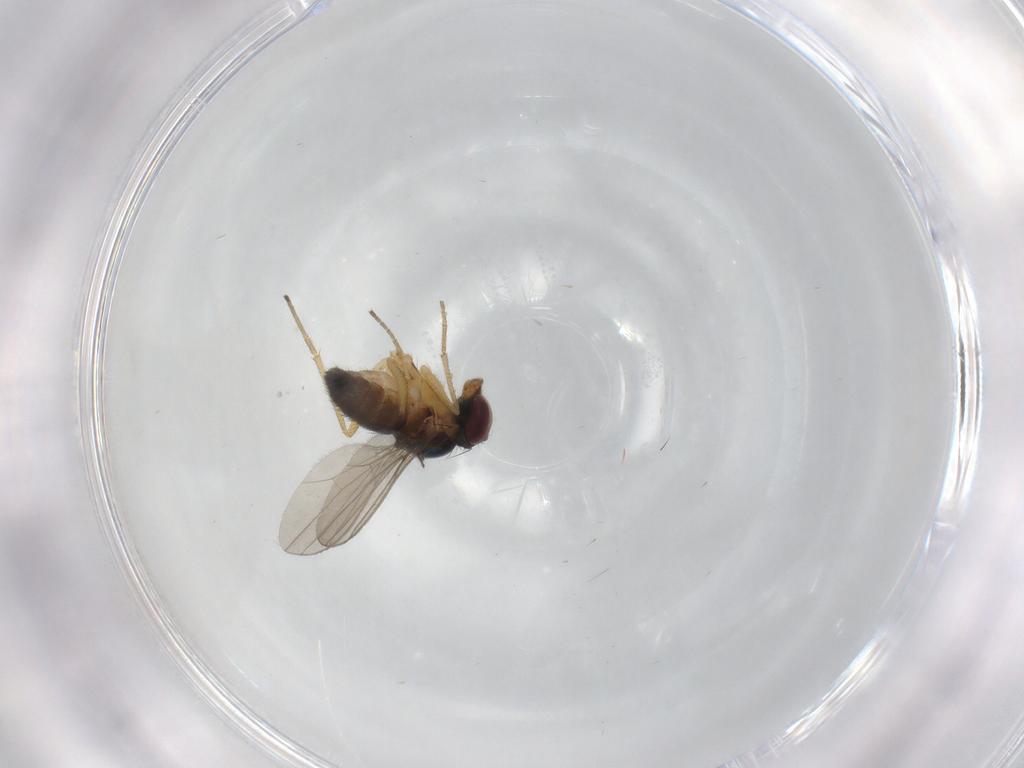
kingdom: Animalia
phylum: Arthropoda
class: Insecta
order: Diptera
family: Dolichopodidae
